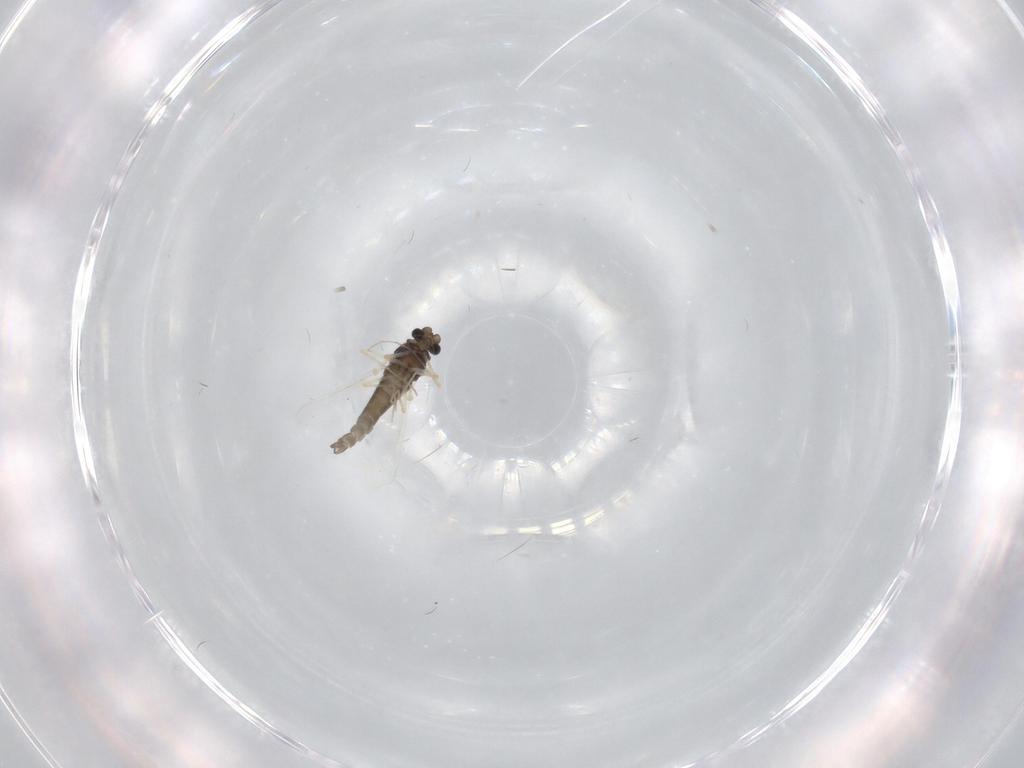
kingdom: Animalia
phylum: Arthropoda
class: Insecta
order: Diptera
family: Chironomidae
